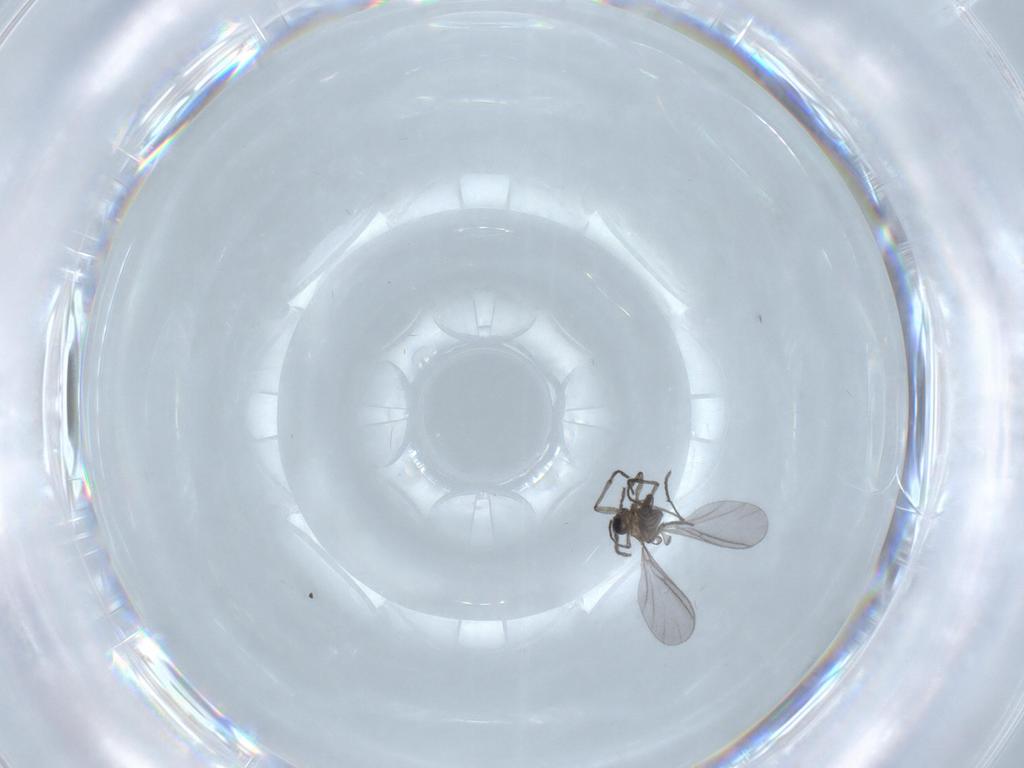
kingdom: Animalia
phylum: Arthropoda
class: Insecta
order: Diptera
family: Sciaridae
